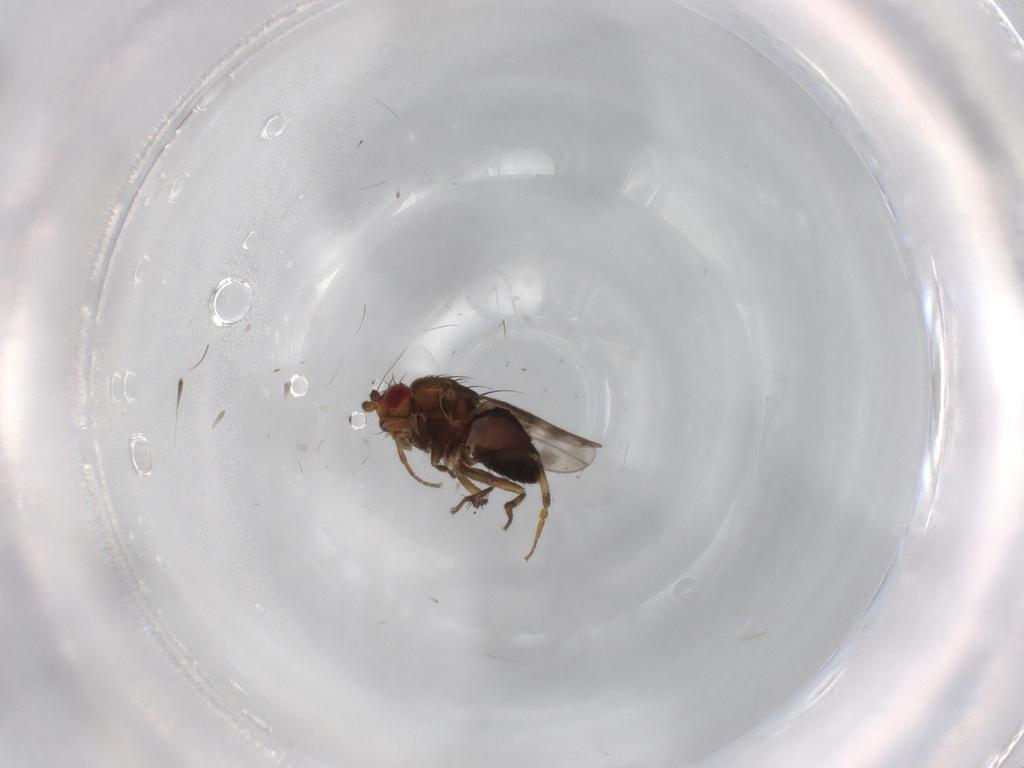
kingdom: Animalia
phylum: Arthropoda
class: Insecta
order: Diptera
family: Sphaeroceridae
